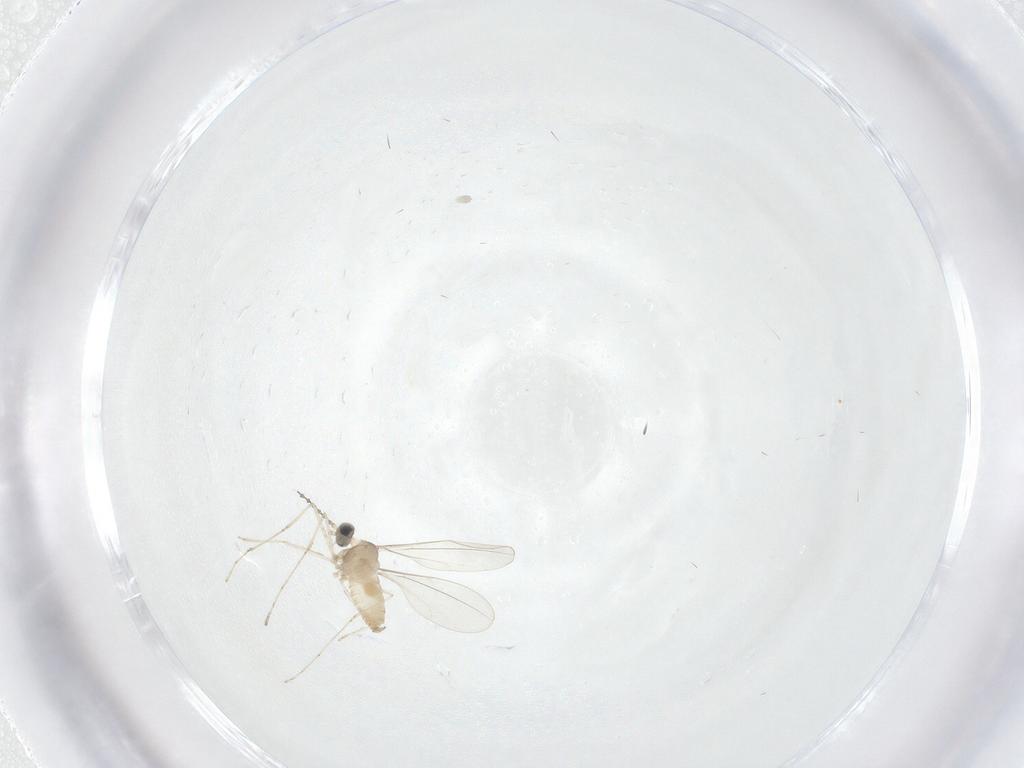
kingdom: Animalia
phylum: Arthropoda
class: Insecta
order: Diptera
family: Cecidomyiidae
